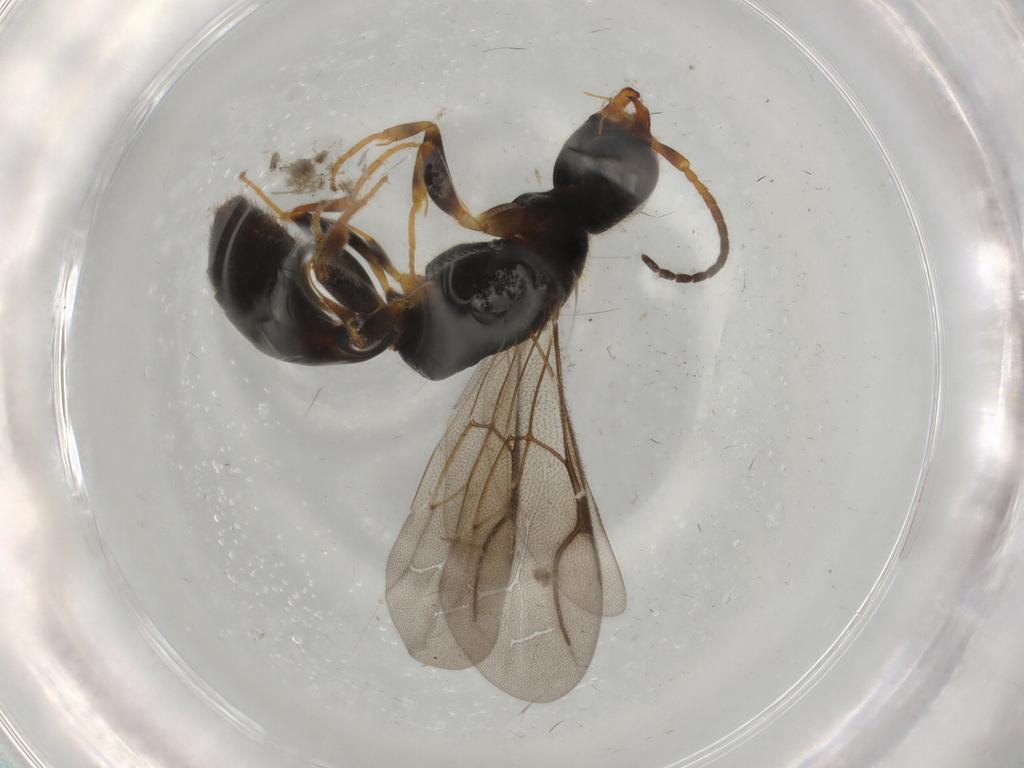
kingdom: Animalia
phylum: Arthropoda
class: Insecta
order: Hymenoptera
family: Bethylidae
